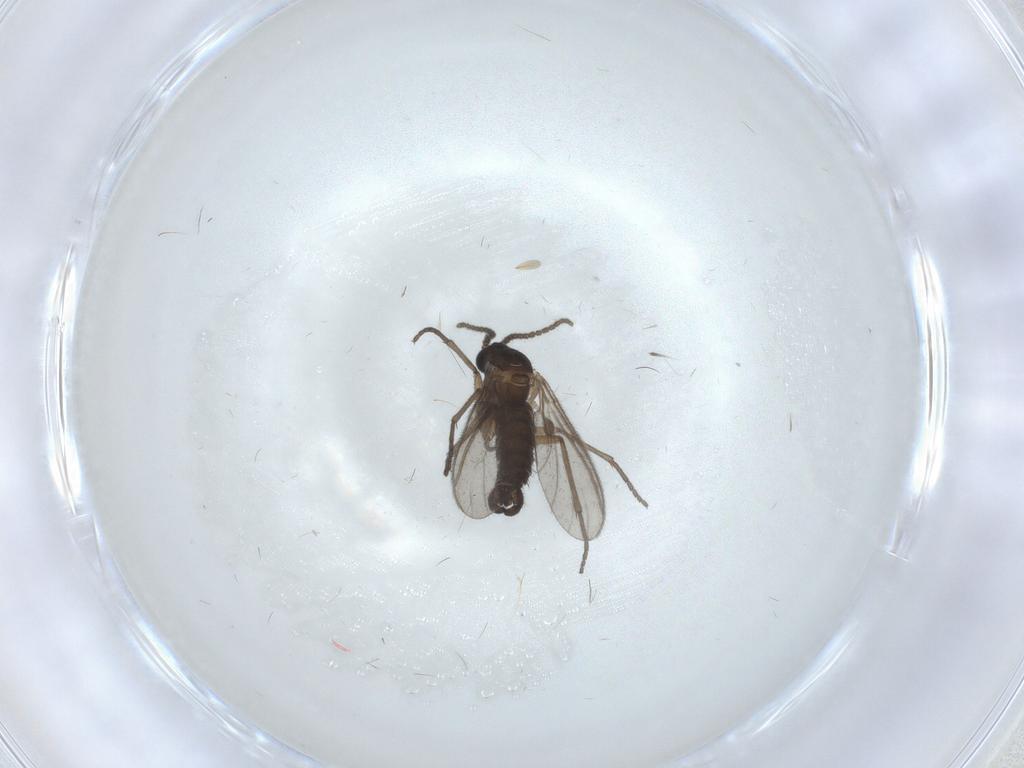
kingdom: Animalia
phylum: Arthropoda
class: Insecta
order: Diptera
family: Sciaridae
